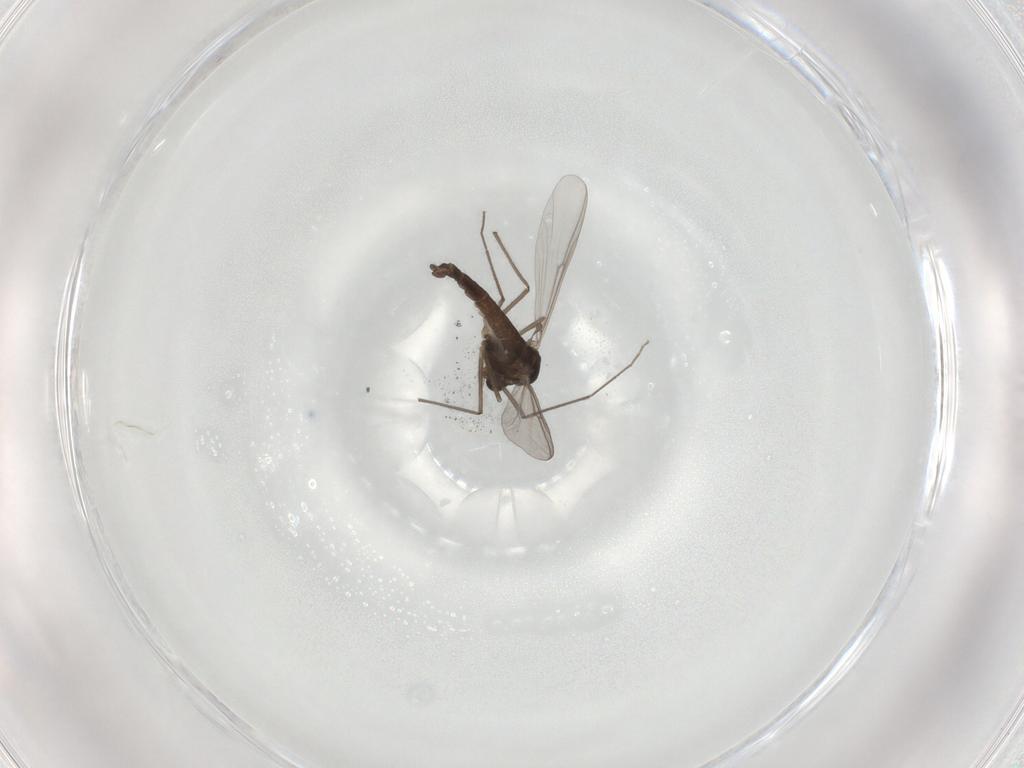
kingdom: Animalia
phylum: Arthropoda
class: Insecta
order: Diptera
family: Chironomidae
